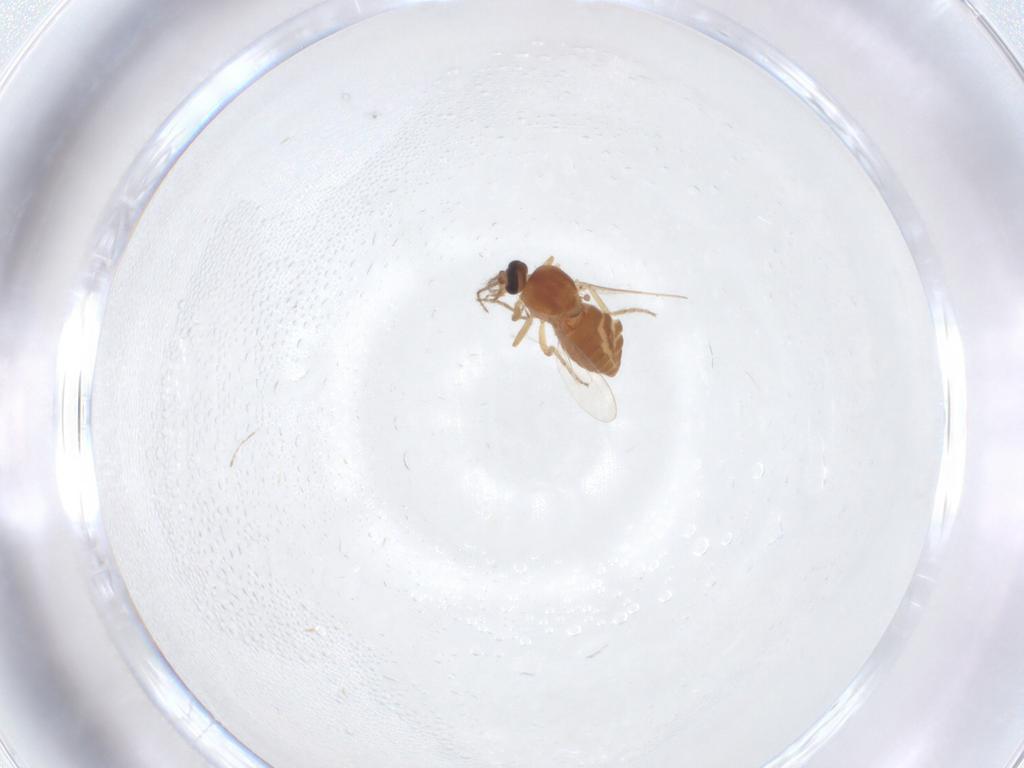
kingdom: Animalia
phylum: Arthropoda
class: Insecta
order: Diptera
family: Ceratopogonidae
